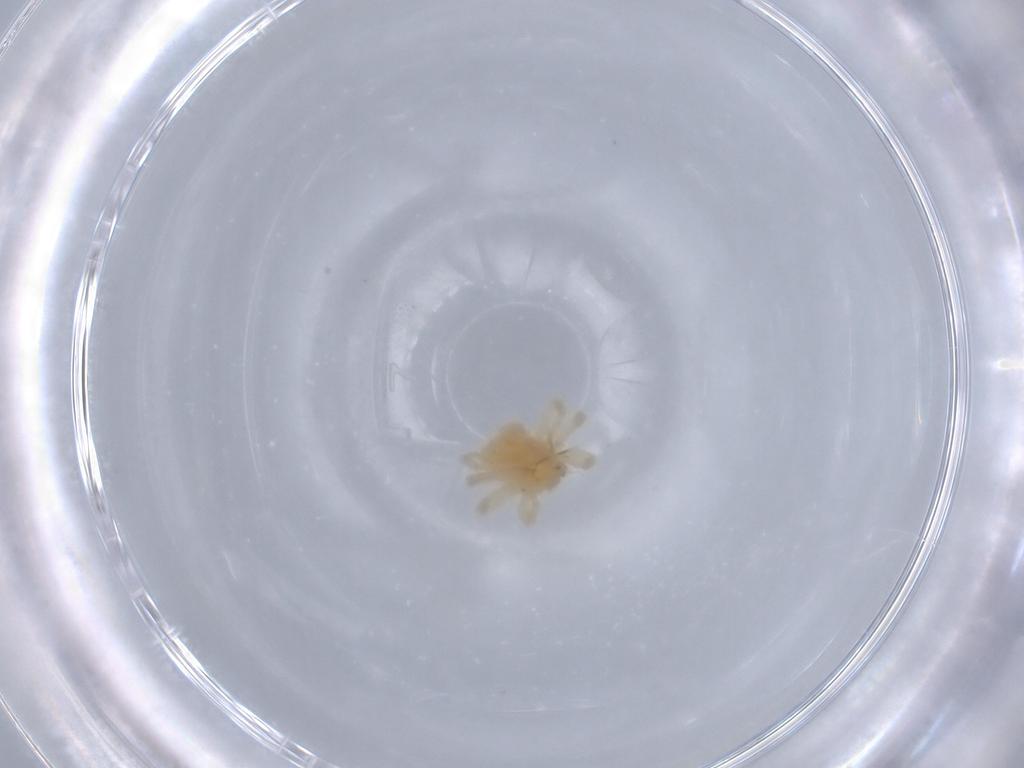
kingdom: Animalia
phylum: Arthropoda
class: Arachnida
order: Trombidiformes
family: Anystidae
